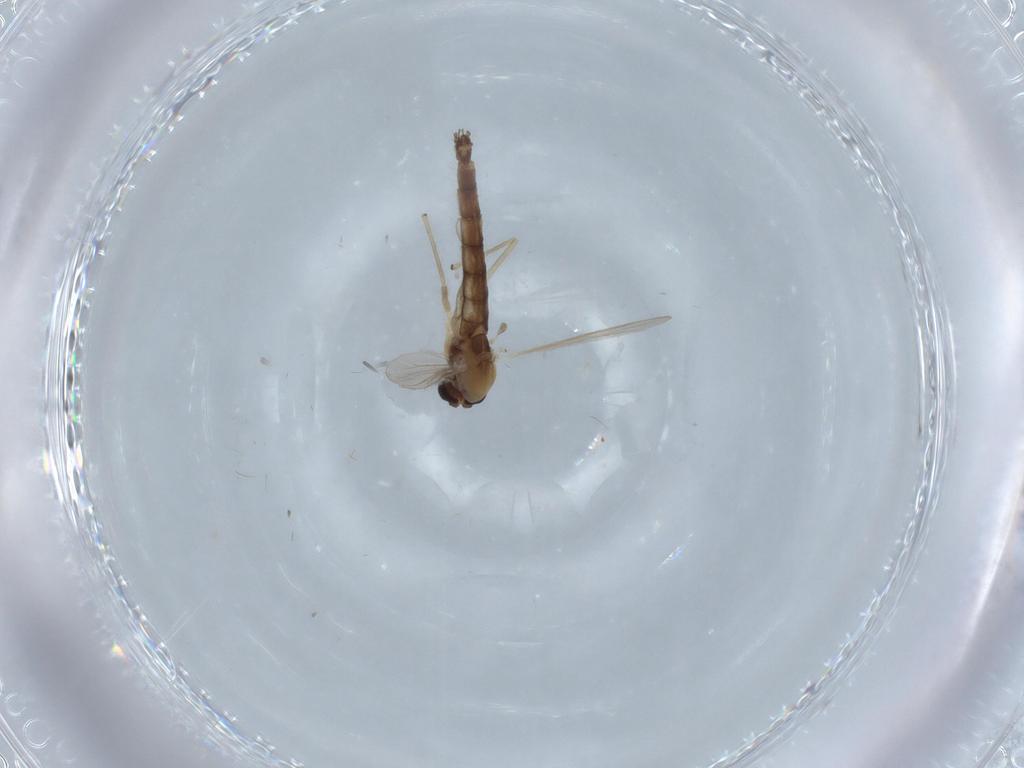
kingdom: Animalia
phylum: Arthropoda
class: Insecta
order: Diptera
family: Chironomidae
